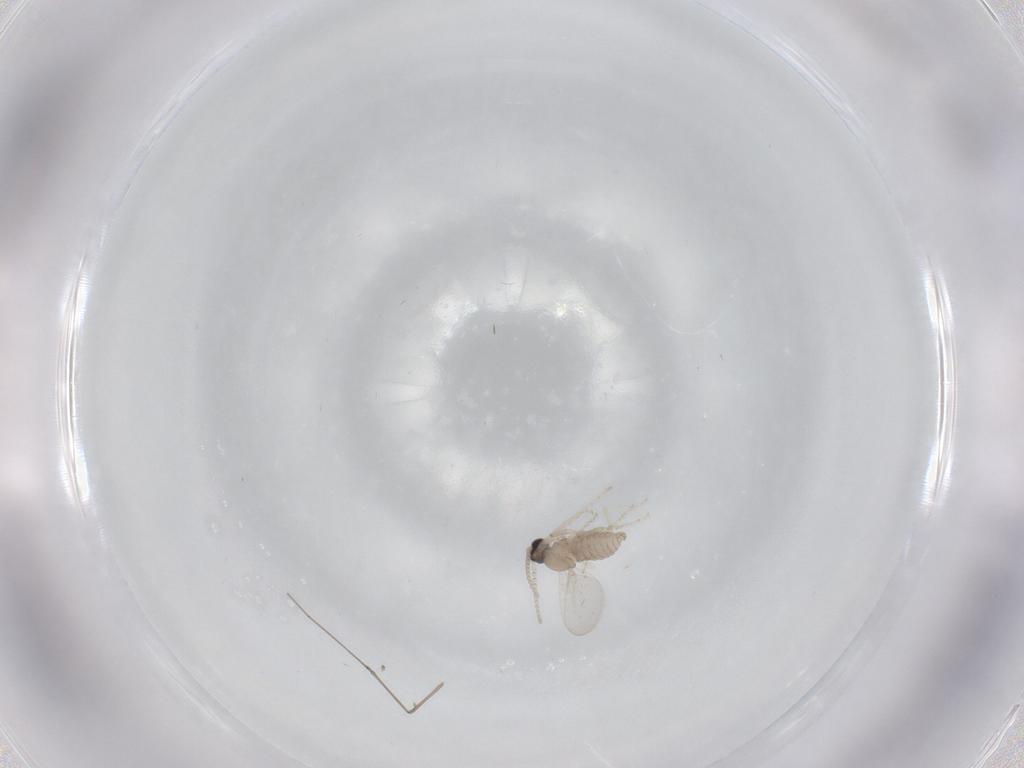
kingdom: Animalia
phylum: Arthropoda
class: Insecta
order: Diptera
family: Cecidomyiidae
